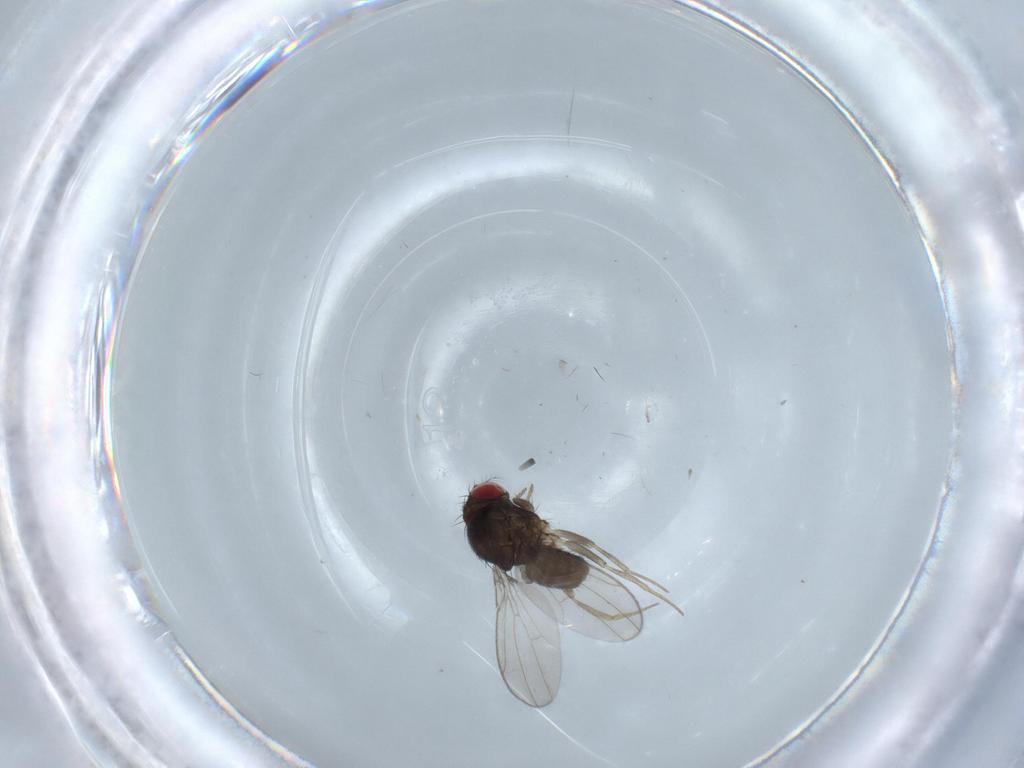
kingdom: Animalia
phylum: Arthropoda
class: Insecta
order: Diptera
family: Drosophilidae
